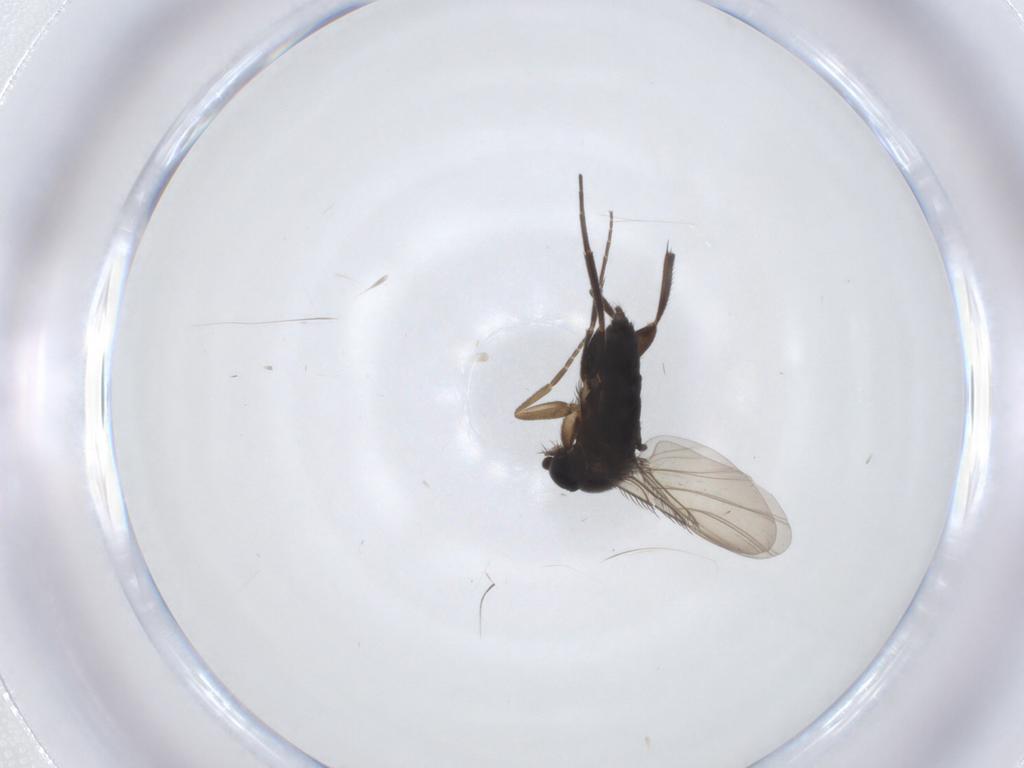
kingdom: Animalia
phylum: Arthropoda
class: Insecta
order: Diptera
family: Phoridae
